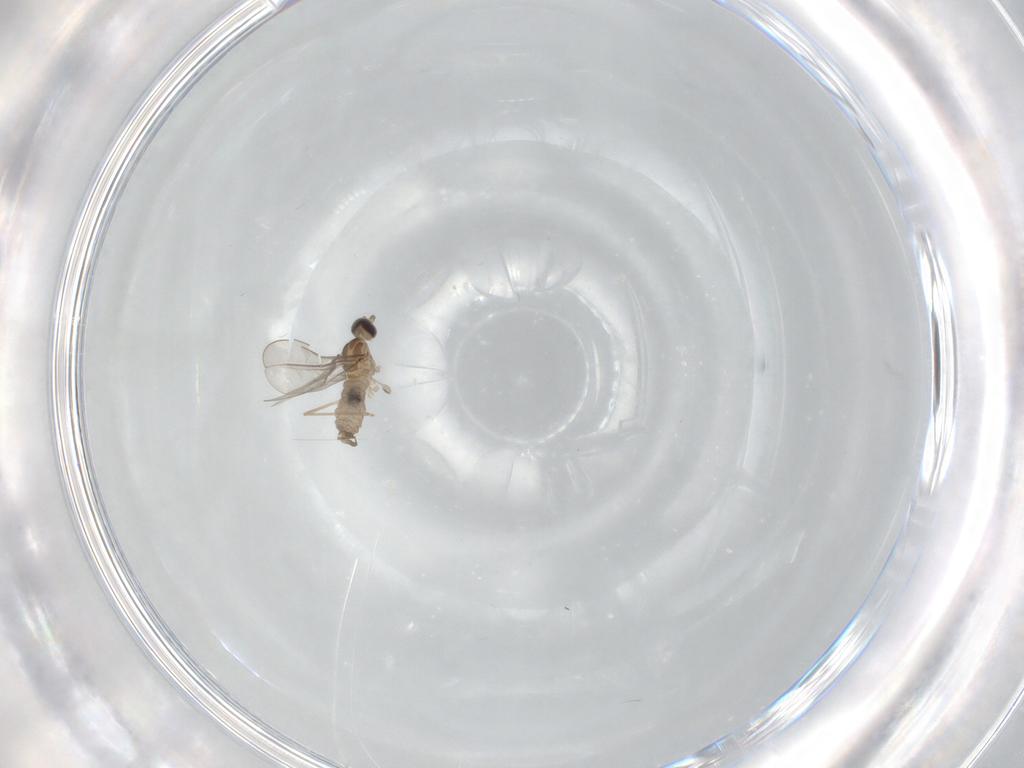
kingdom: Animalia
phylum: Arthropoda
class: Insecta
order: Diptera
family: Cecidomyiidae
